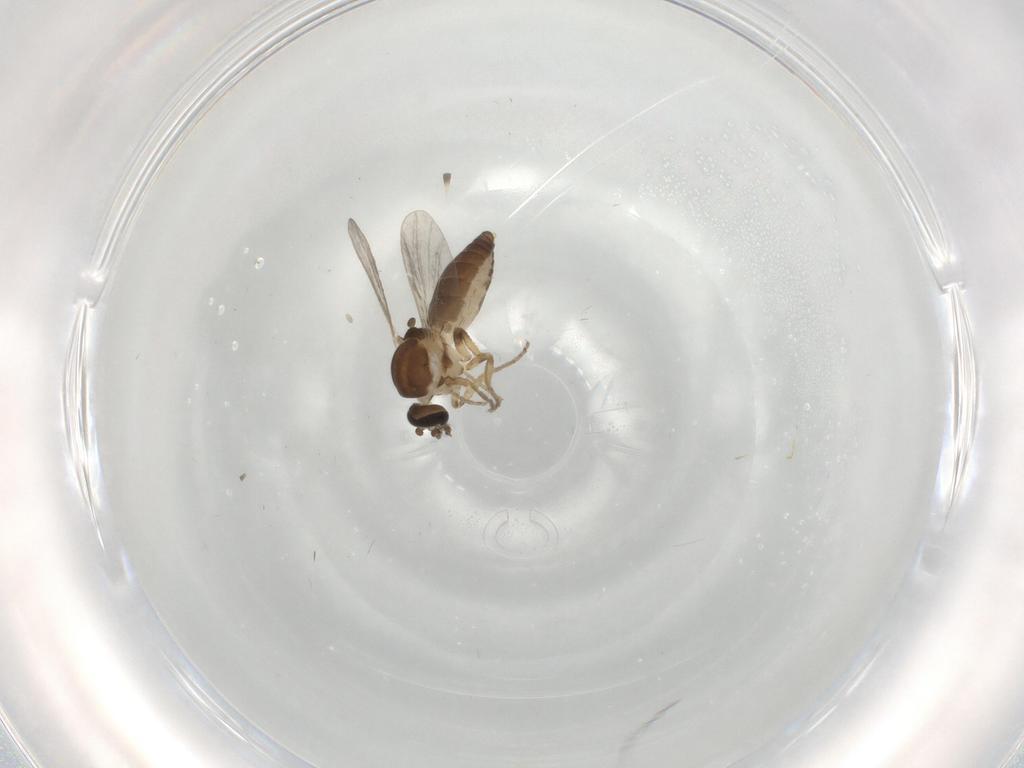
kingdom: Animalia
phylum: Arthropoda
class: Insecta
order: Diptera
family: Ceratopogonidae
